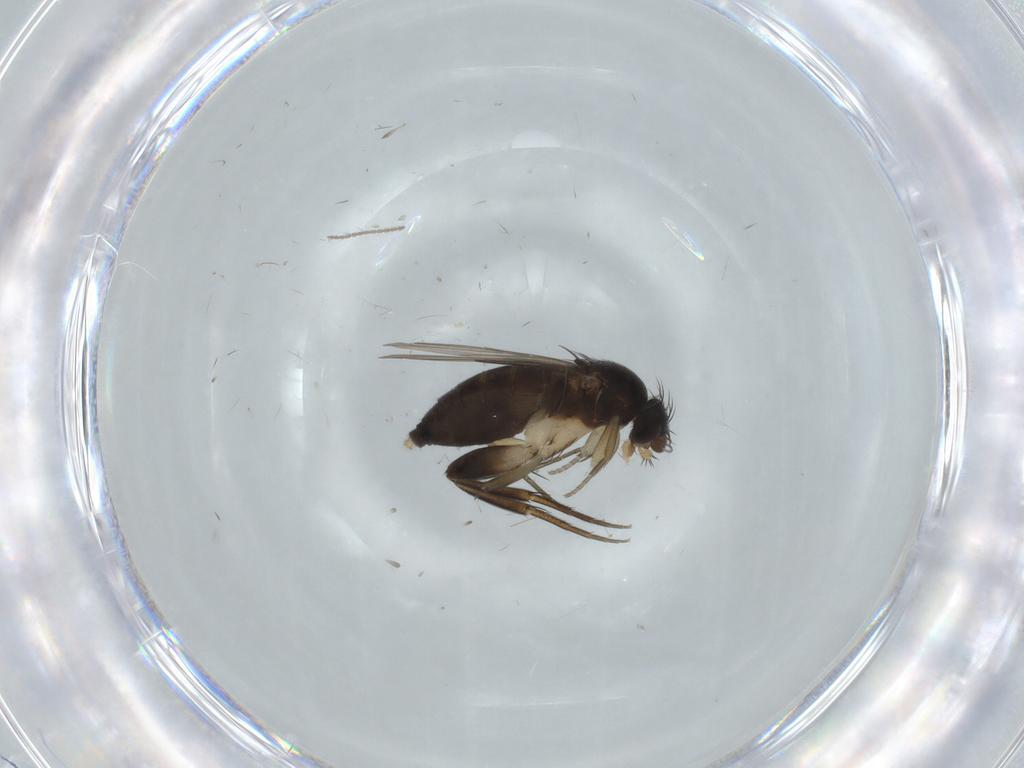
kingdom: Animalia
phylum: Arthropoda
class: Insecta
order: Diptera
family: Phoridae
